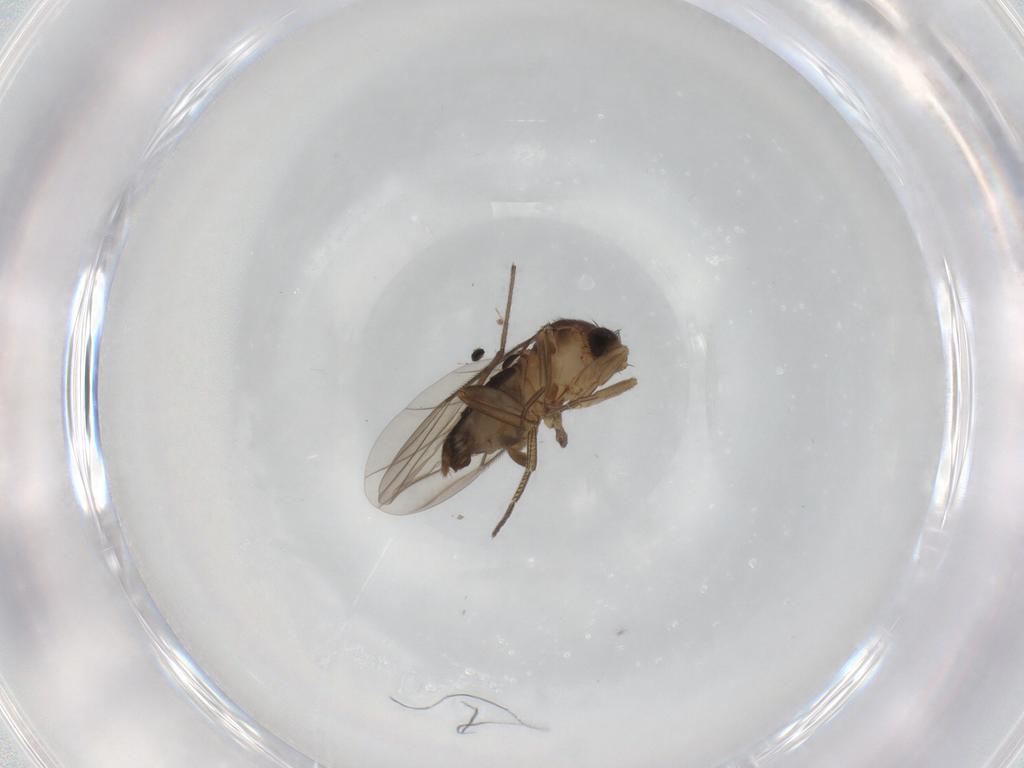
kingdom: Animalia
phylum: Arthropoda
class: Insecta
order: Diptera
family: Phoridae
